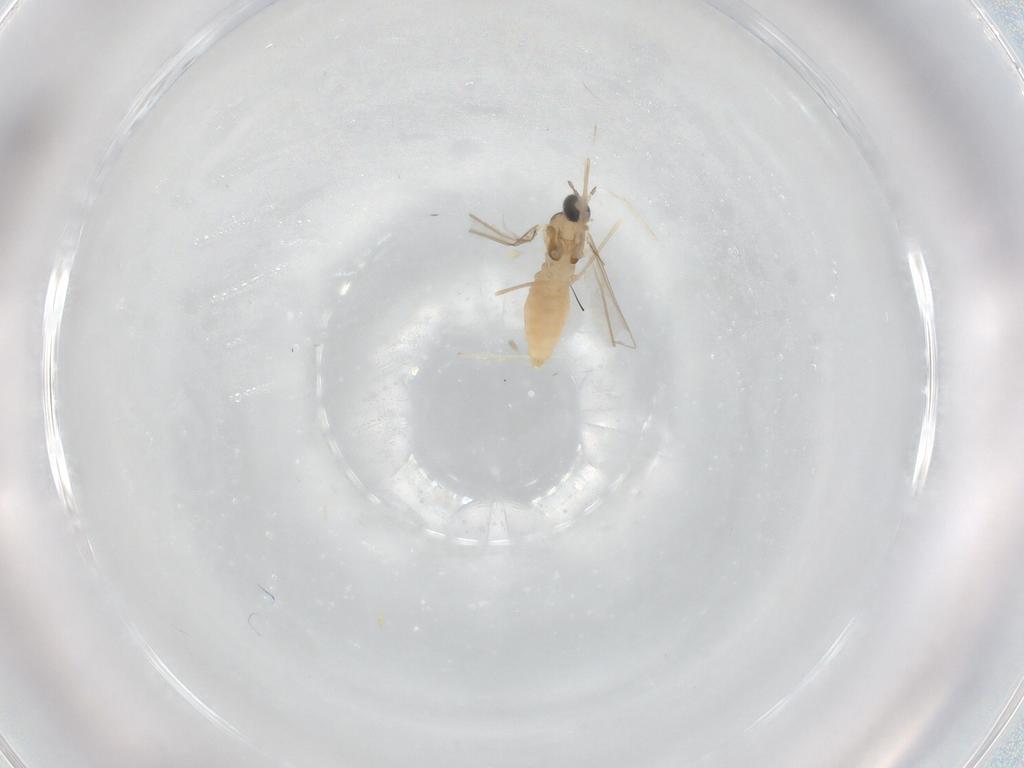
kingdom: Animalia
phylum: Arthropoda
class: Insecta
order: Diptera
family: Cecidomyiidae
